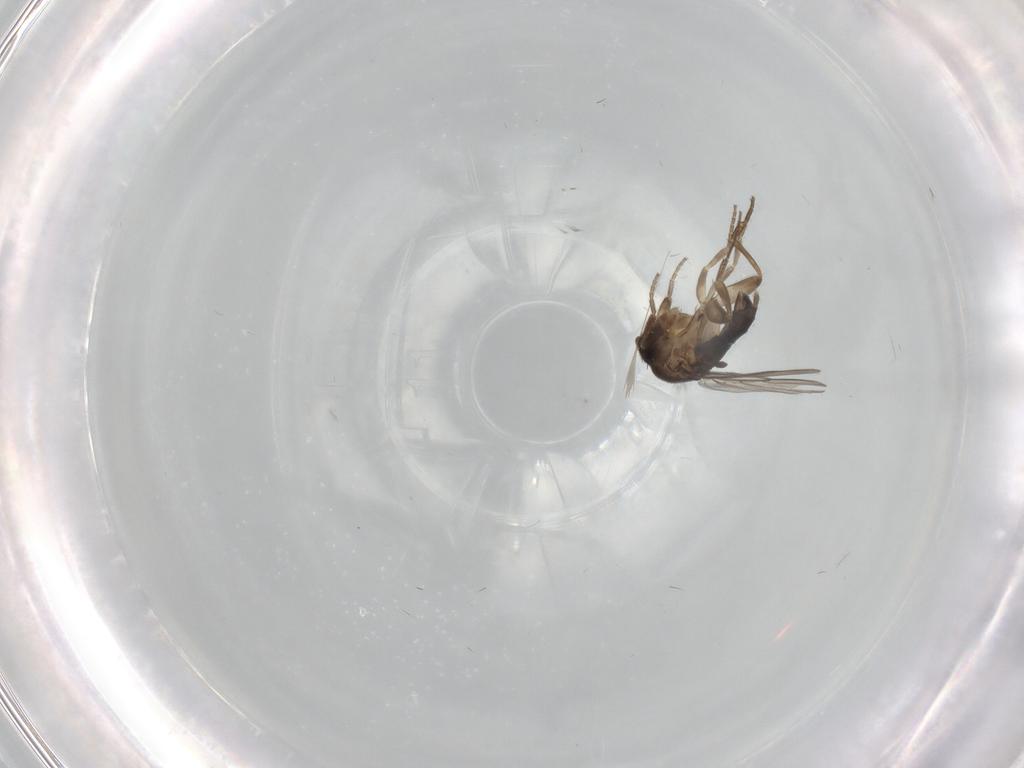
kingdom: Animalia
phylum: Arthropoda
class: Insecta
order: Diptera
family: Phoridae
